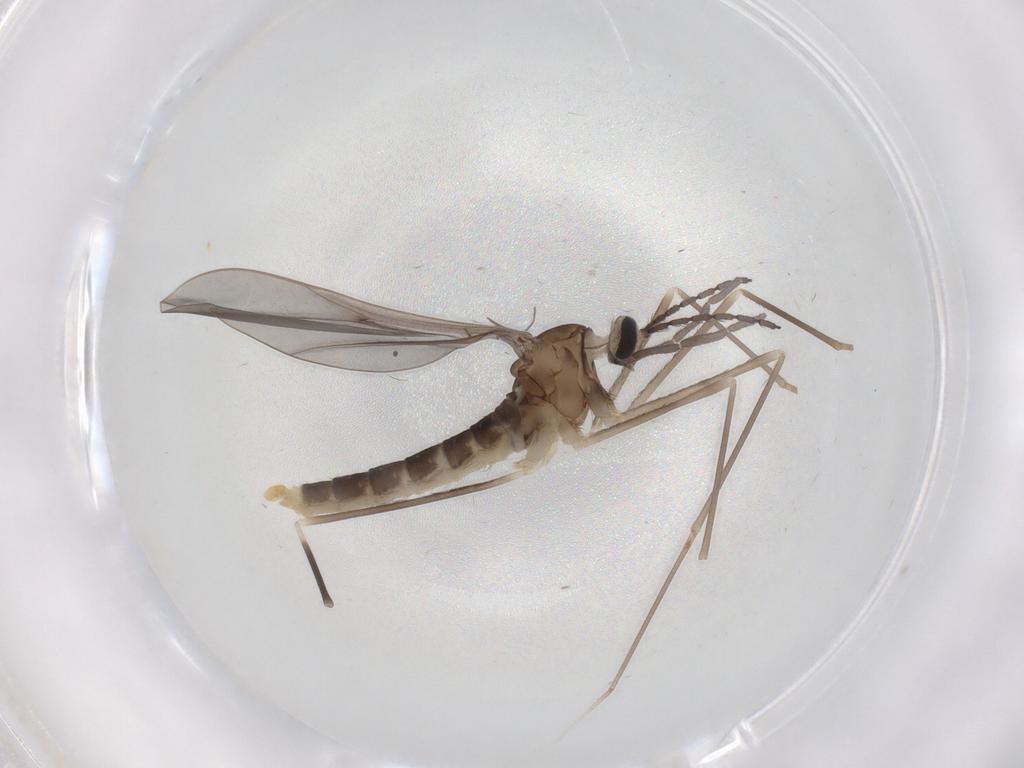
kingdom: Animalia
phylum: Arthropoda
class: Insecta
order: Diptera
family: Cecidomyiidae
